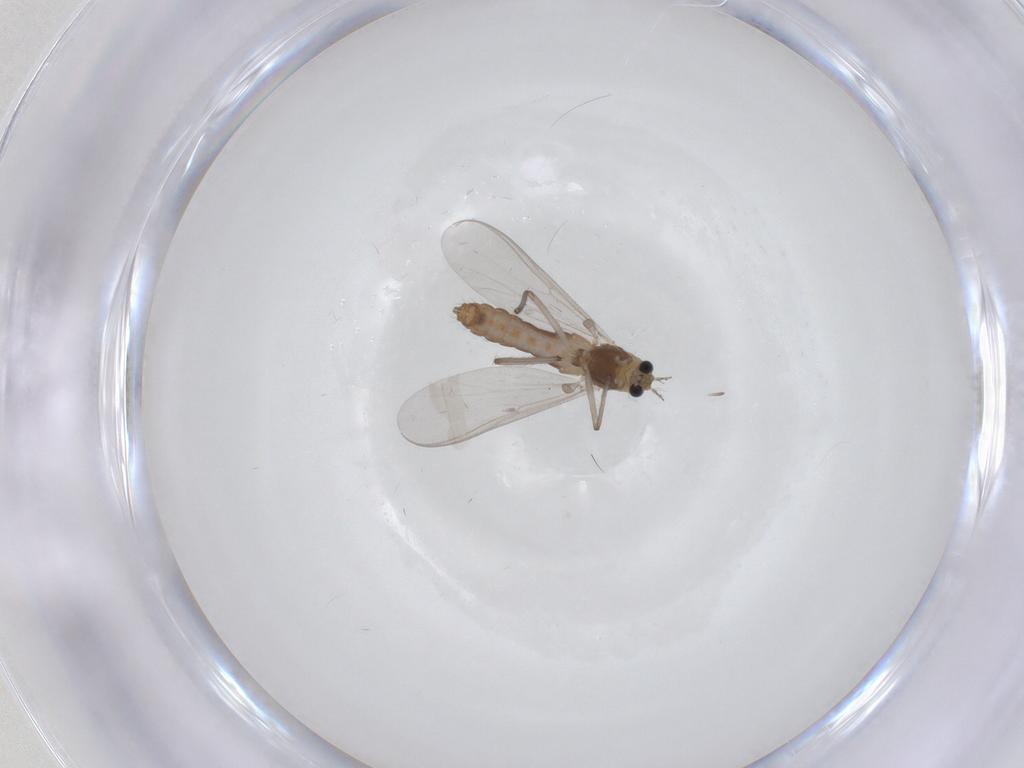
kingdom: Animalia
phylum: Arthropoda
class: Insecta
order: Diptera
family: Chironomidae
